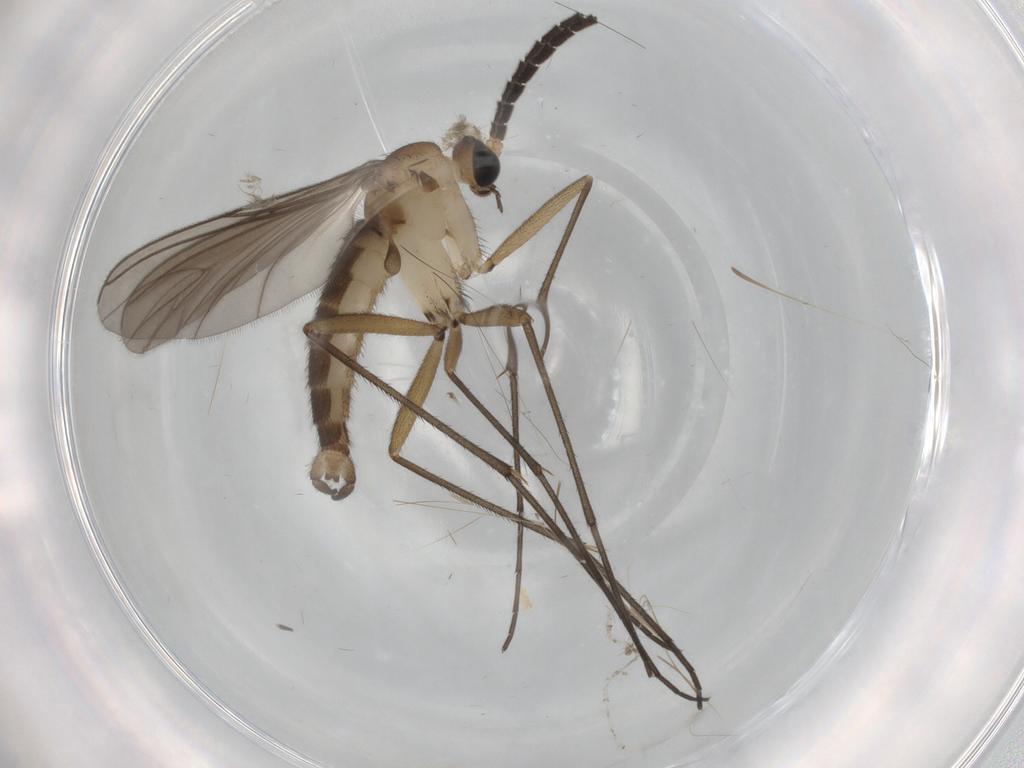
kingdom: Animalia
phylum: Arthropoda
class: Insecta
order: Diptera
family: Sciaridae
